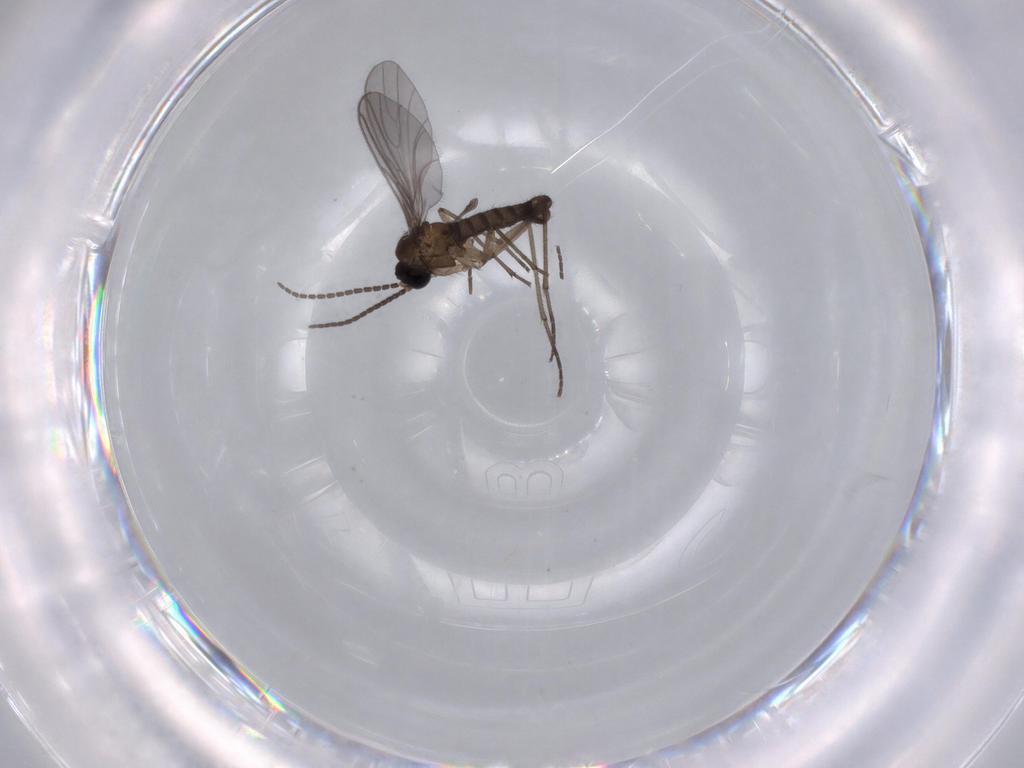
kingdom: Animalia
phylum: Arthropoda
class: Insecta
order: Diptera
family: Sciaridae
